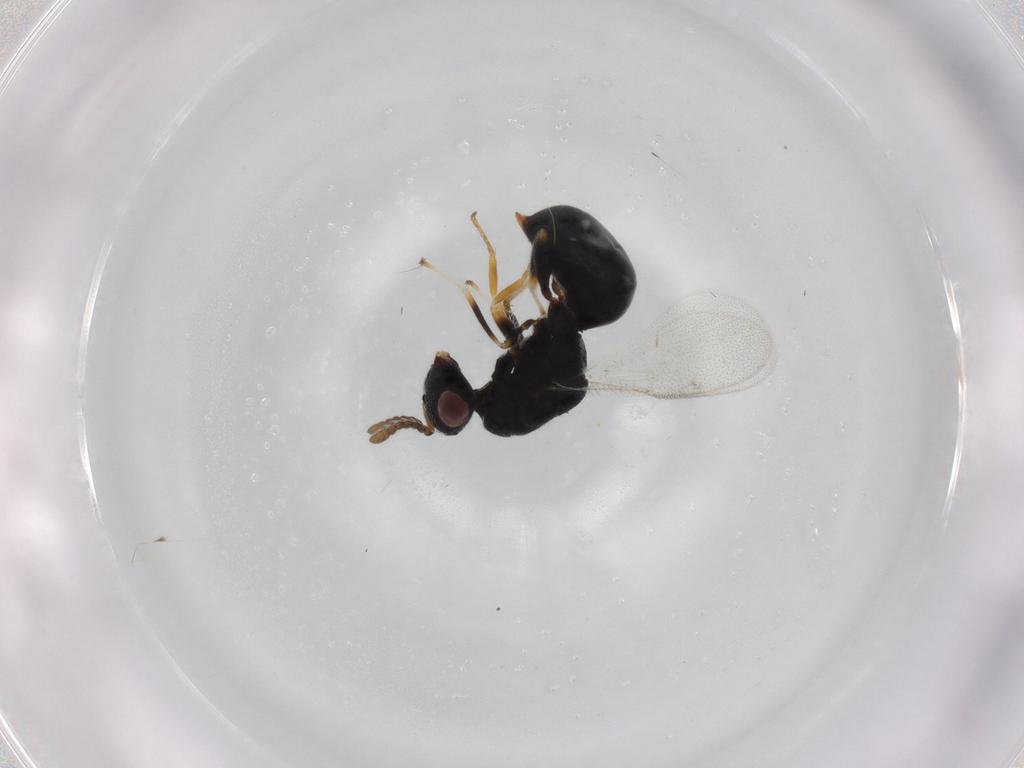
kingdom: Animalia
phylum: Arthropoda
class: Insecta
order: Hymenoptera
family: Eurytomidae
